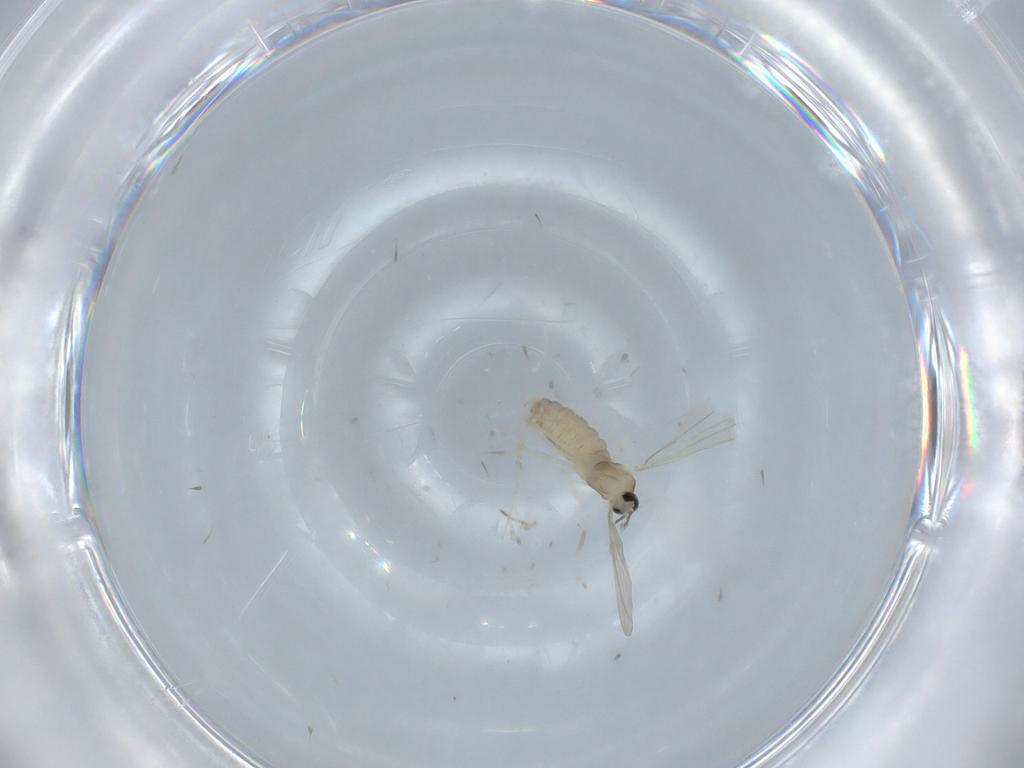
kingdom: Animalia
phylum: Arthropoda
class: Insecta
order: Diptera
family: Cecidomyiidae
